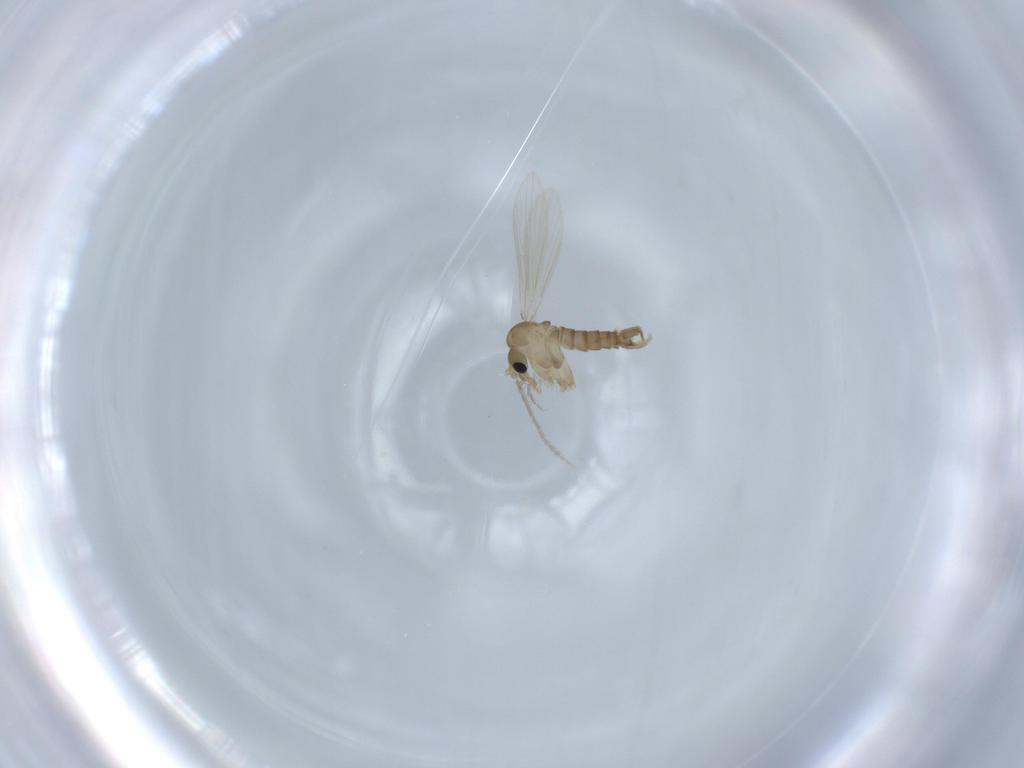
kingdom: Animalia
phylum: Arthropoda
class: Insecta
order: Diptera
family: Psychodidae
